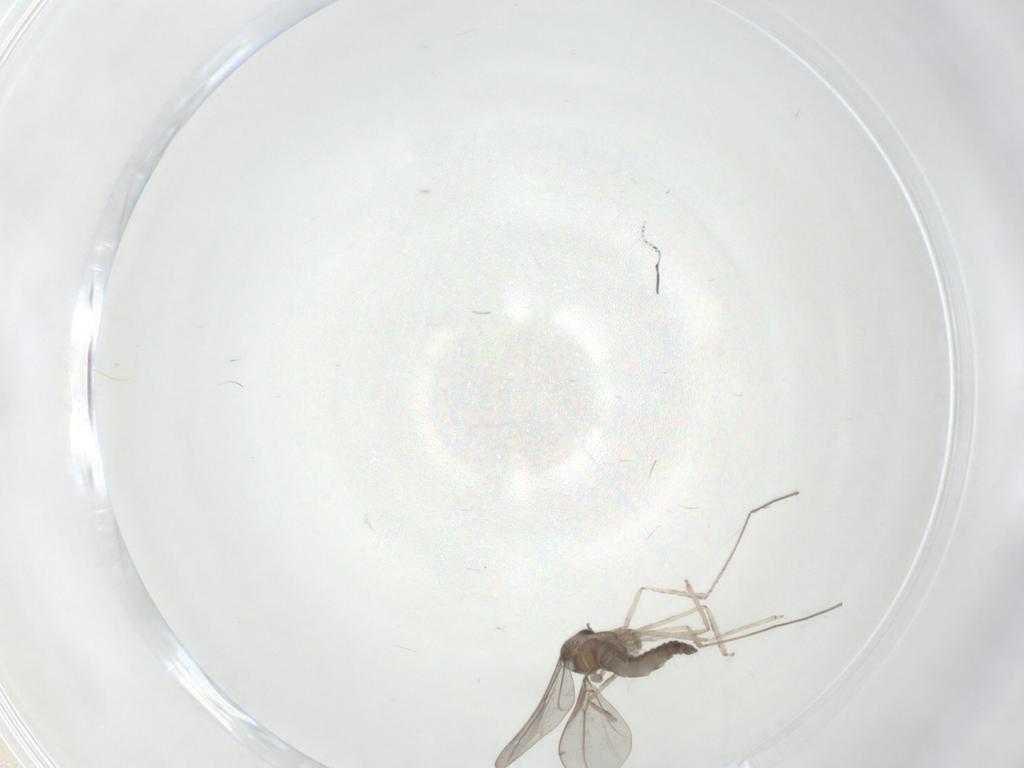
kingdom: Animalia
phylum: Arthropoda
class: Insecta
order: Diptera
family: Cecidomyiidae
